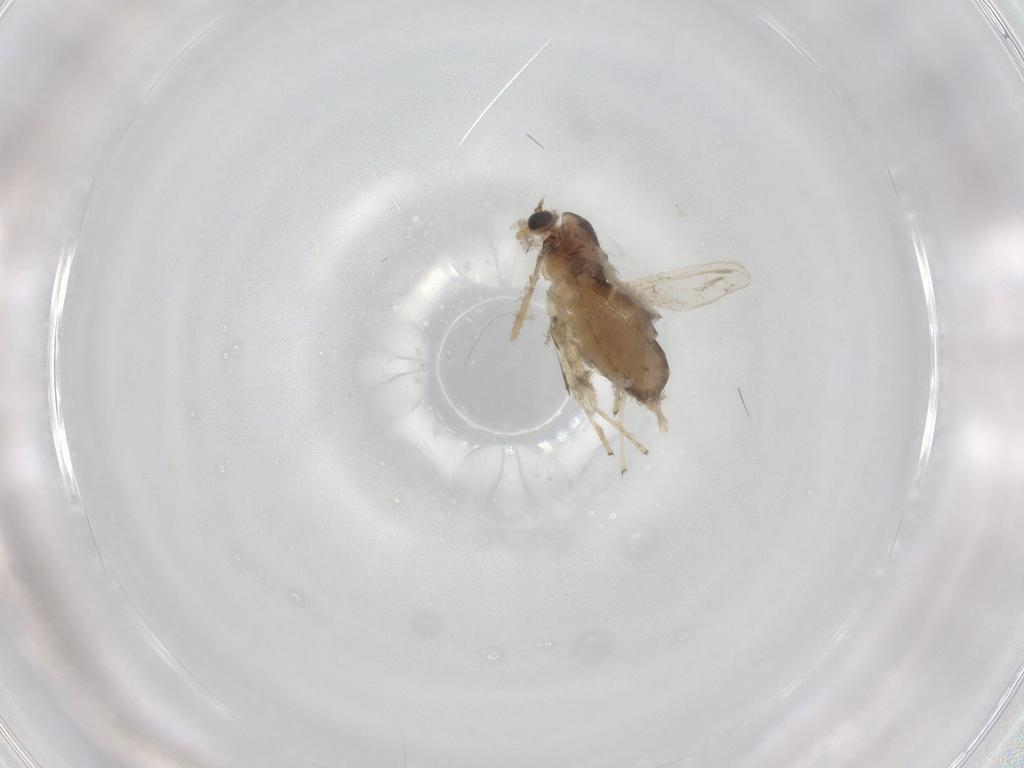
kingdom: Animalia
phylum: Arthropoda
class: Insecta
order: Diptera
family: Chironomidae
